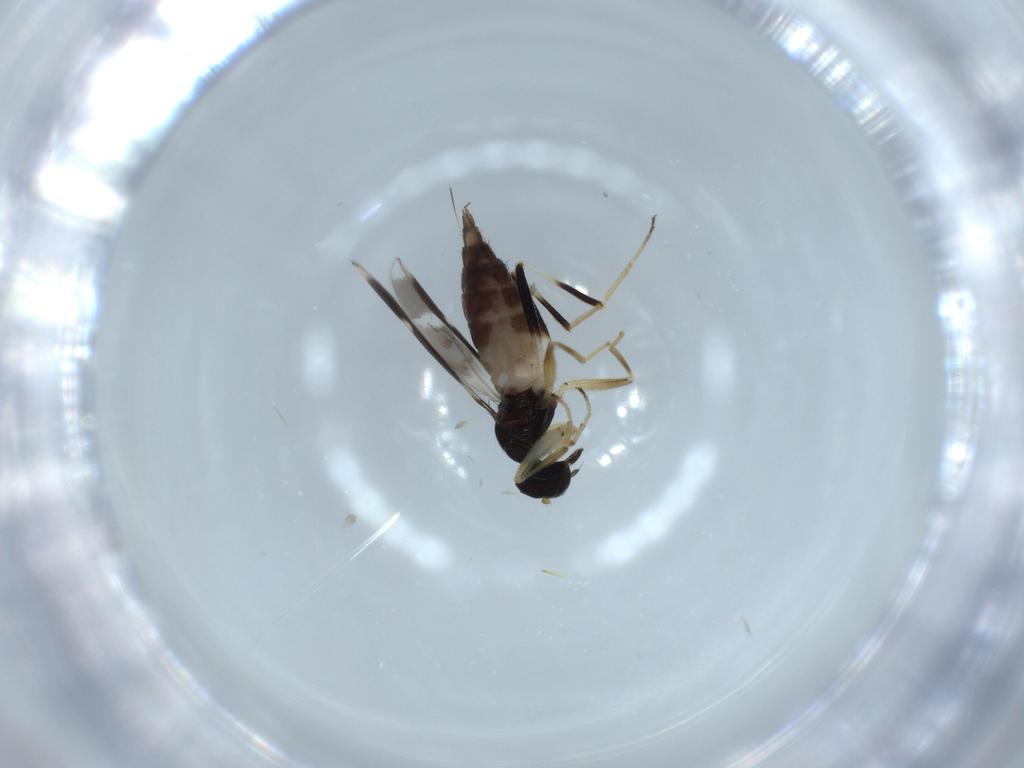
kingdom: Animalia
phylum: Arthropoda
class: Insecta
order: Diptera
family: Hybotidae
